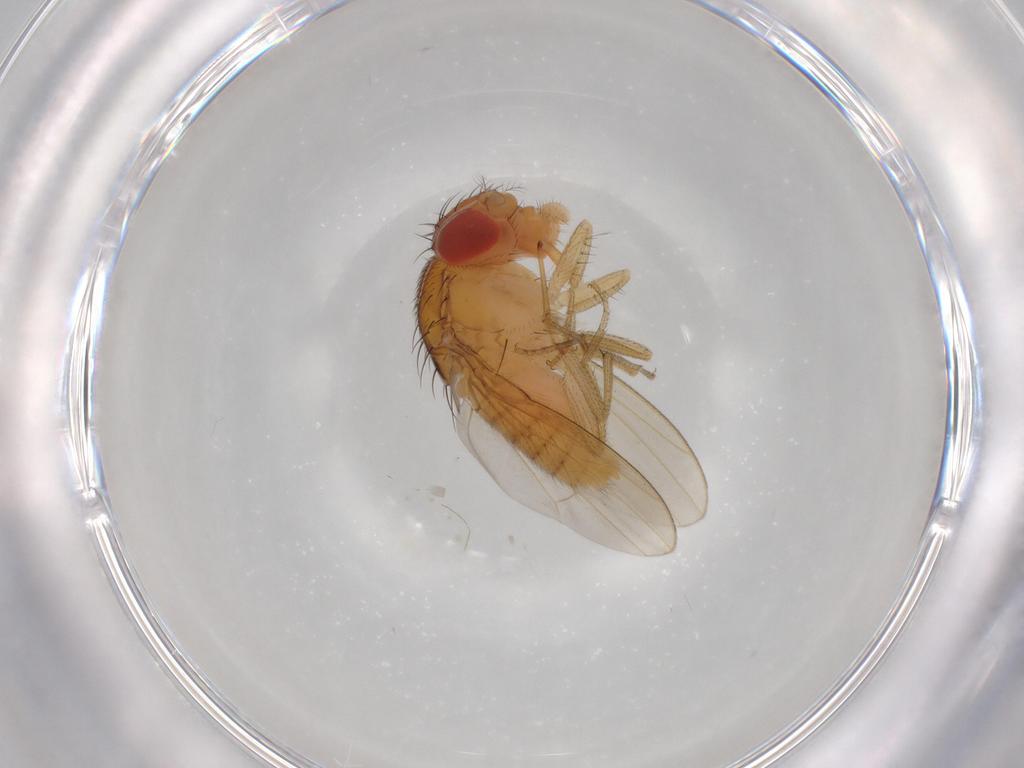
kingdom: Animalia
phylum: Arthropoda
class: Insecta
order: Diptera
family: Drosophilidae
